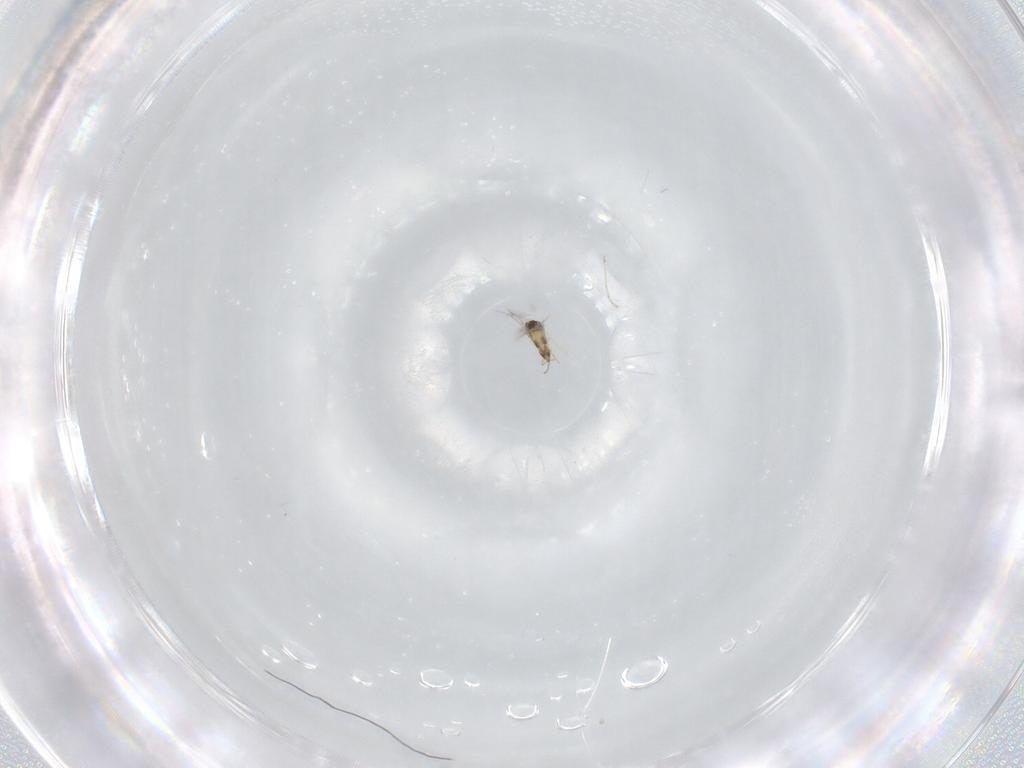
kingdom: Animalia
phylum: Arthropoda
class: Insecta
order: Hymenoptera
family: Mymaridae
